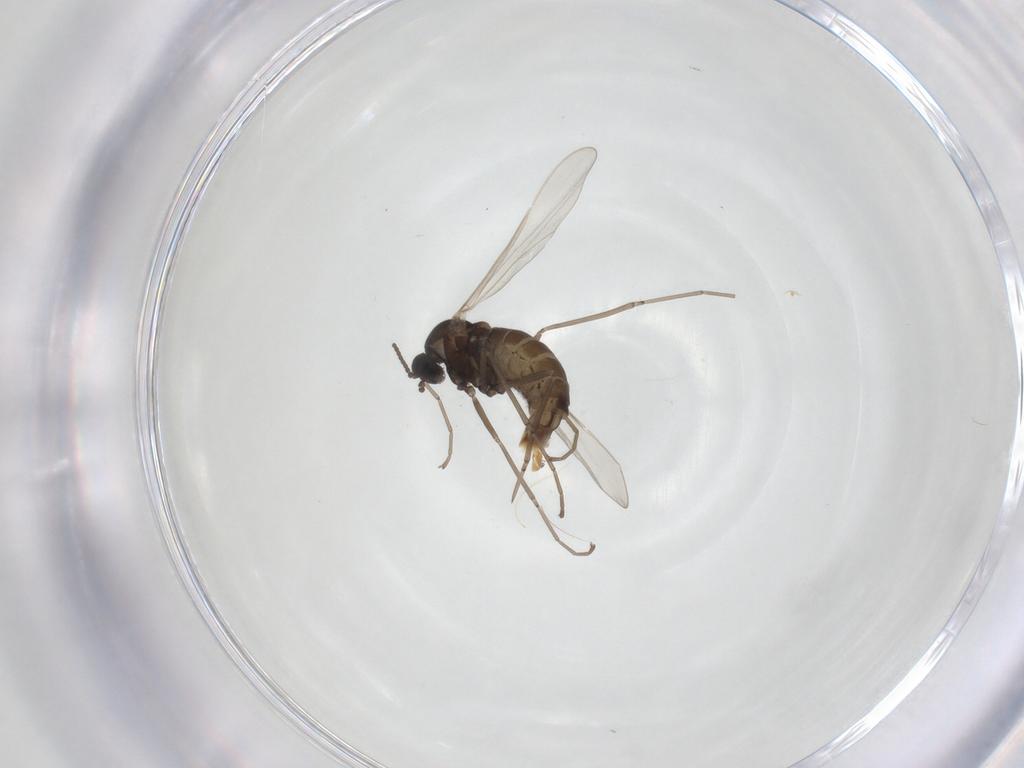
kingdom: Animalia
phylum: Arthropoda
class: Insecta
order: Diptera
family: Cecidomyiidae
